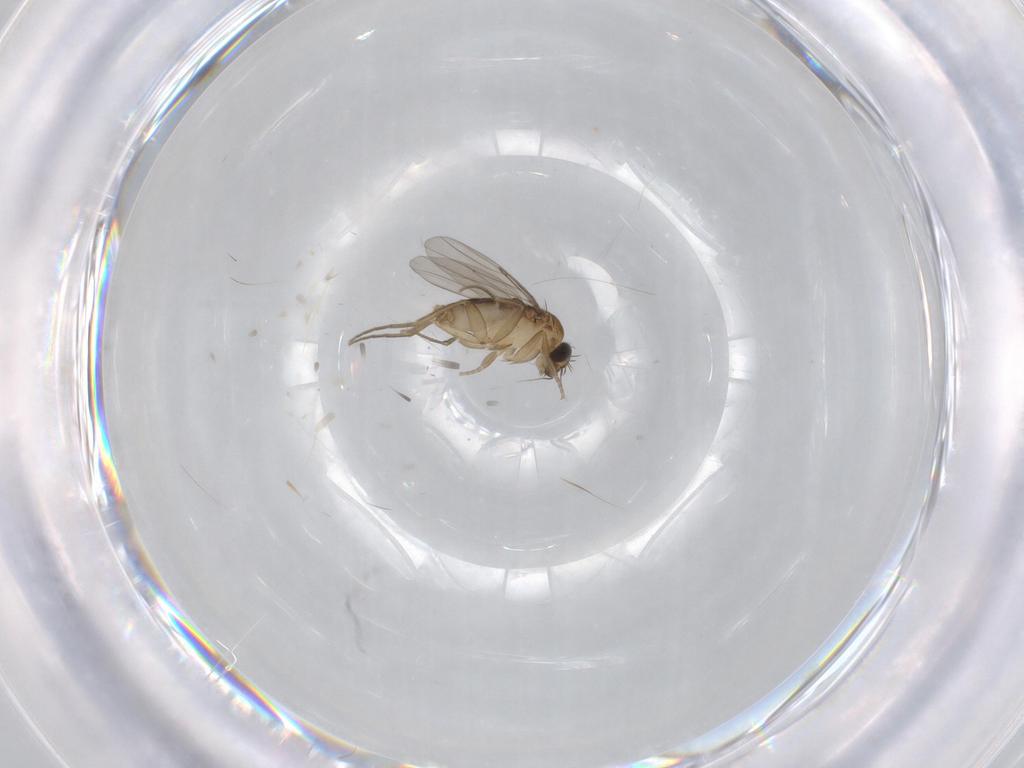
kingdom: Animalia
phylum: Arthropoda
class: Insecta
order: Diptera
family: Phoridae
